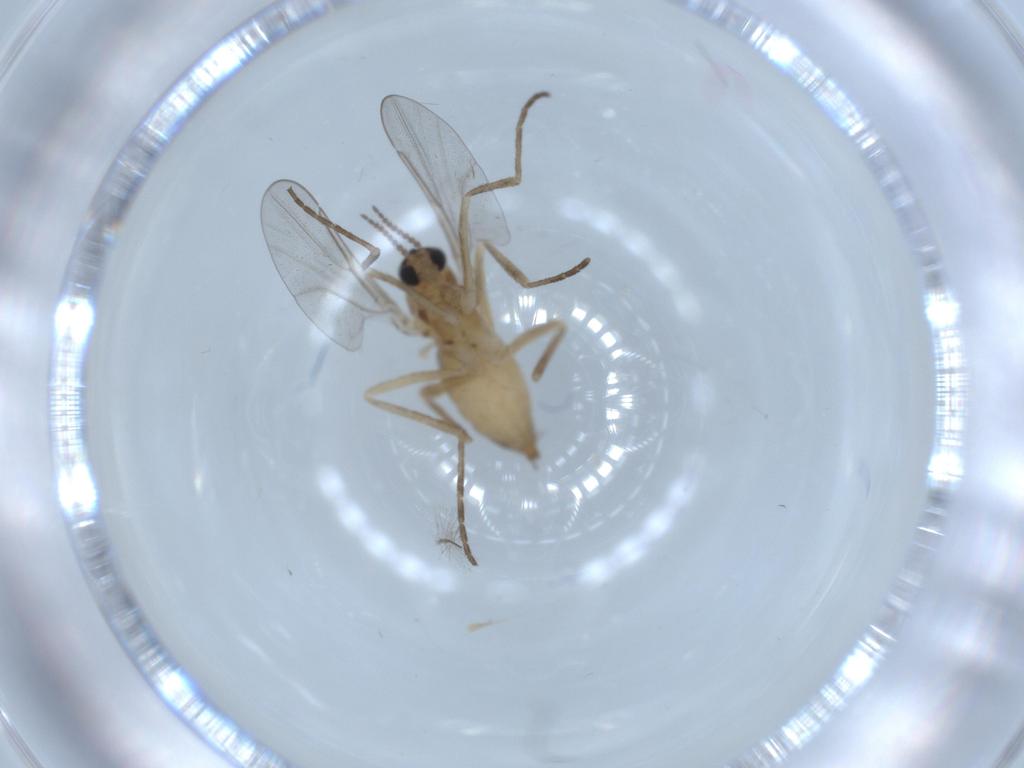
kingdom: Animalia
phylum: Arthropoda
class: Insecta
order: Diptera
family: Cecidomyiidae
